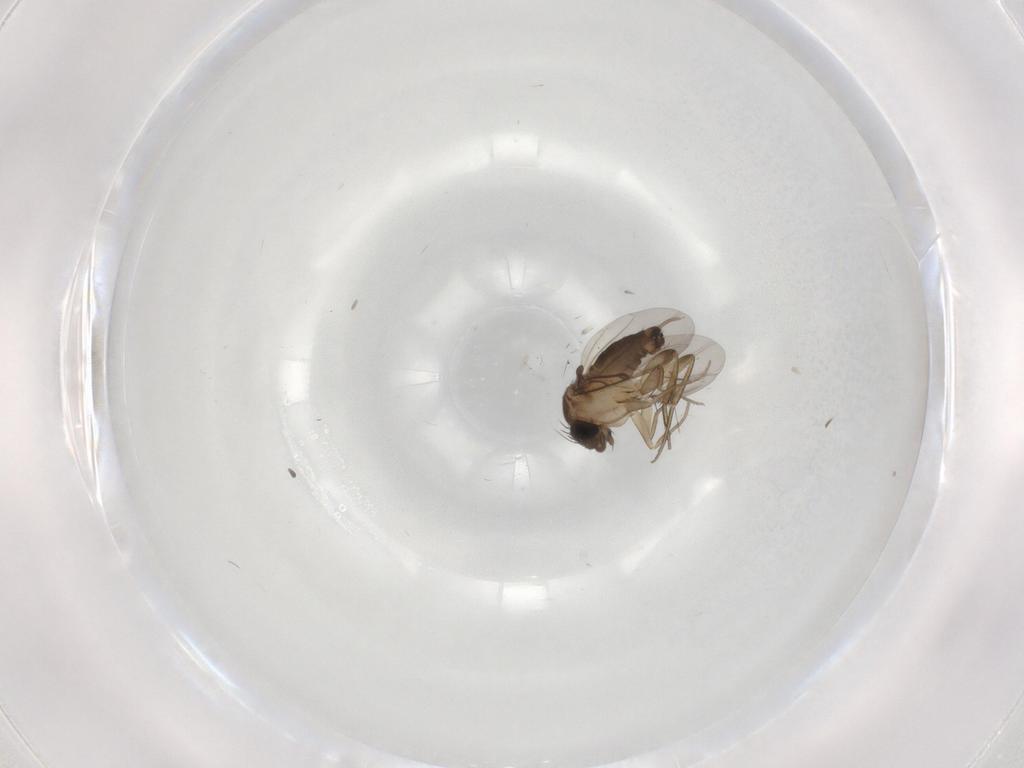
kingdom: Animalia
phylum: Arthropoda
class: Insecta
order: Diptera
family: Phoridae
